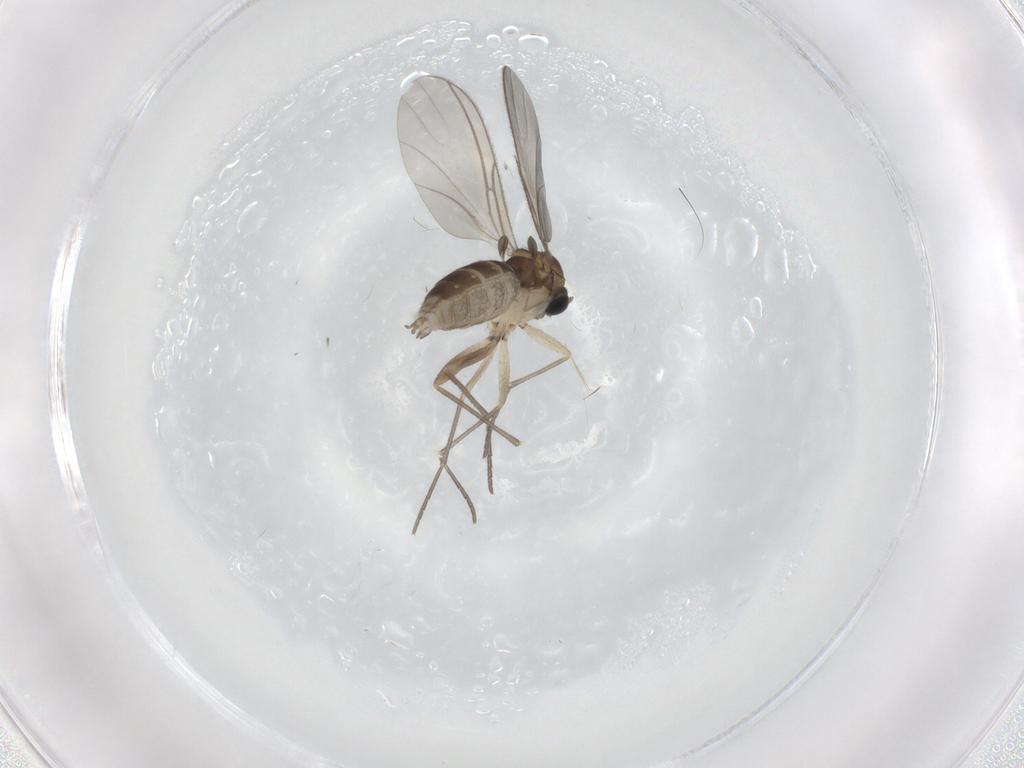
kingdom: Animalia
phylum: Arthropoda
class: Insecta
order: Diptera
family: Sciaridae
